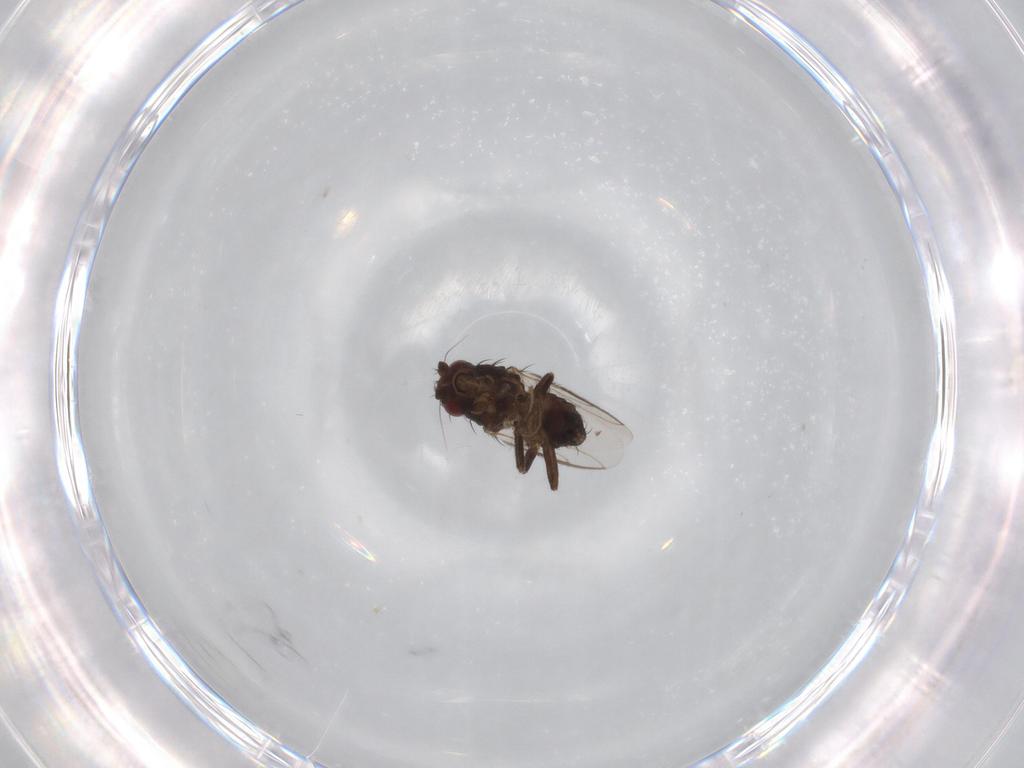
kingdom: Animalia
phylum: Arthropoda
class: Insecta
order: Diptera
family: Sphaeroceridae
